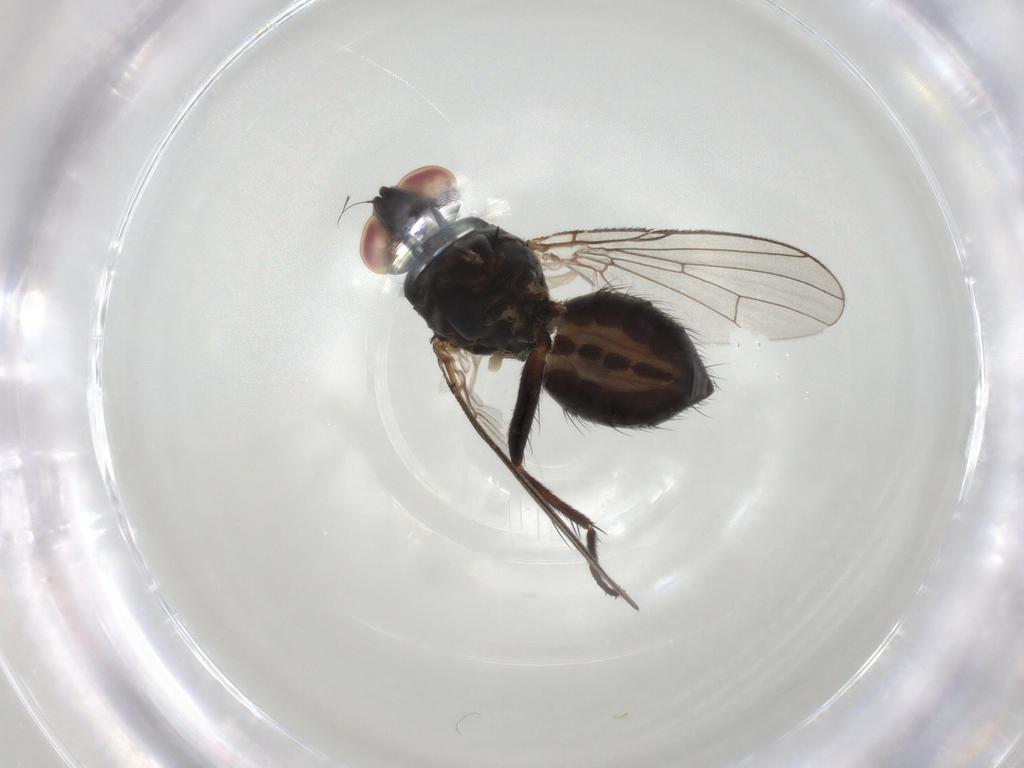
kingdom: Animalia
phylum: Arthropoda
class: Insecta
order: Diptera
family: Muscidae
